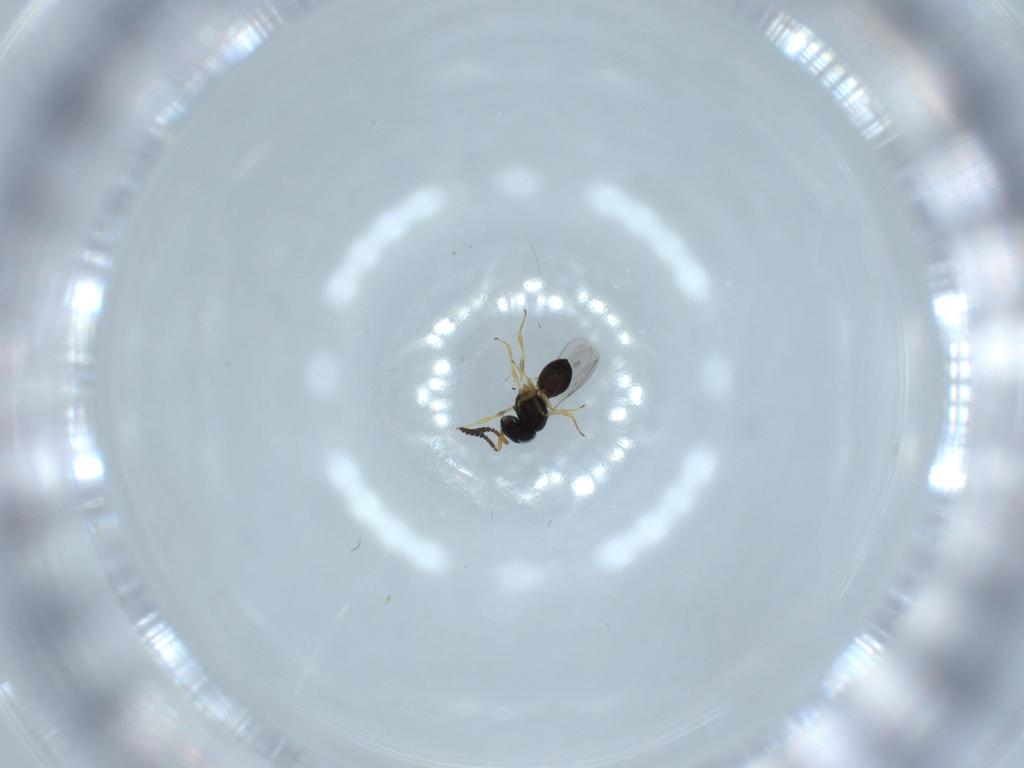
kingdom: Animalia
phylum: Arthropoda
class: Insecta
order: Hymenoptera
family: Scelionidae
